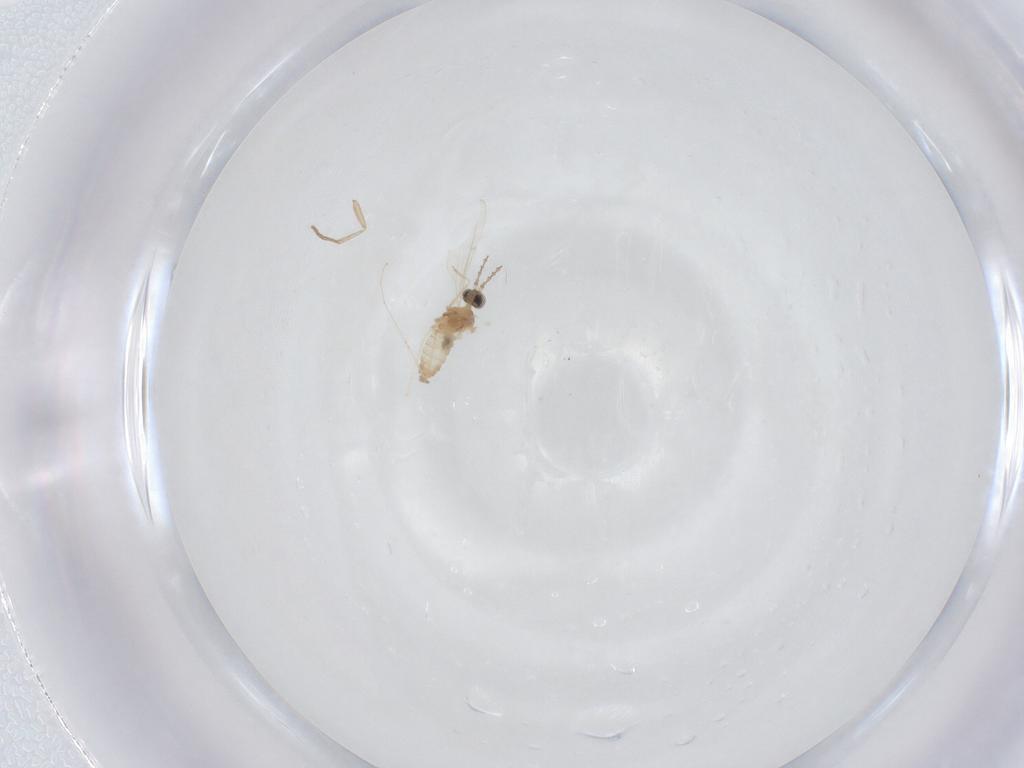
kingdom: Animalia
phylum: Arthropoda
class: Insecta
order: Diptera
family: Cecidomyiidae
